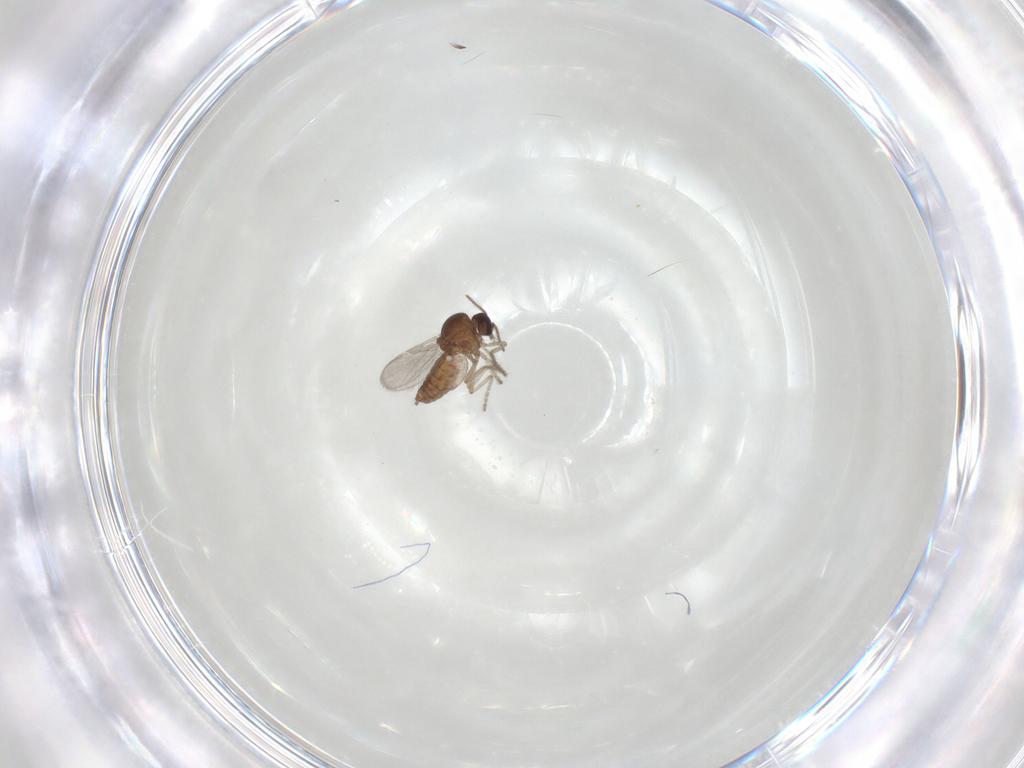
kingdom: Animalia
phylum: Arthropoda
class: Insecta
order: Diptera
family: Ceratopogonidae
